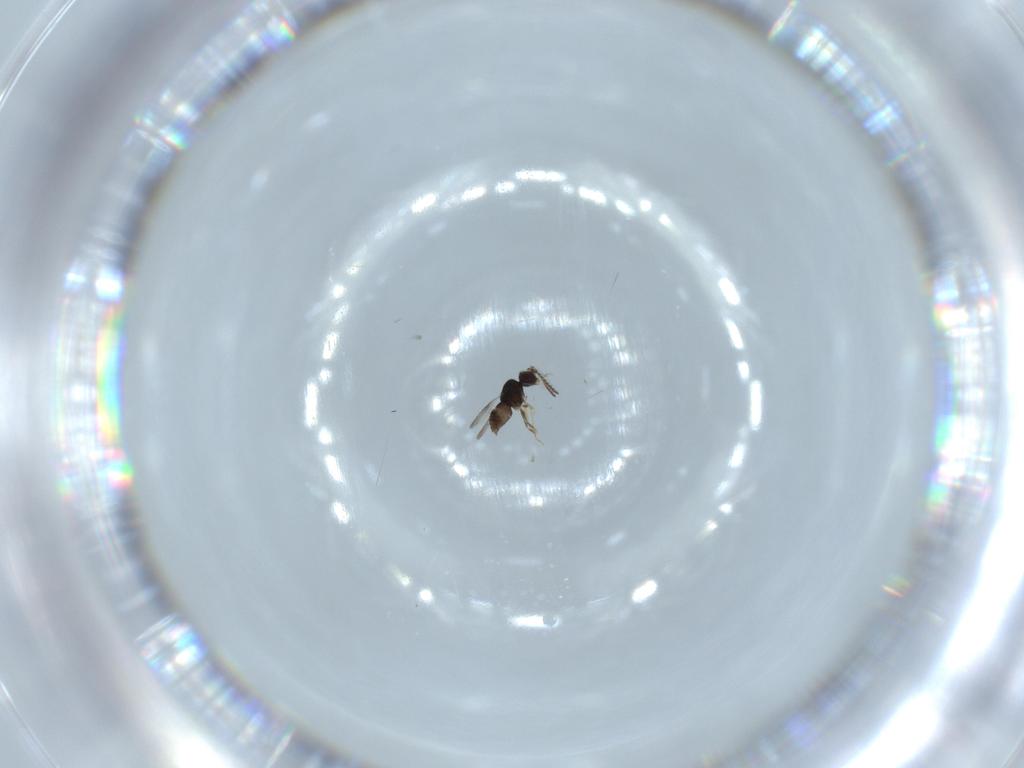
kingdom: Animalia
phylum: Arthropoda
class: Insecta
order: Hymenoptera
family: Ceraphronidae
